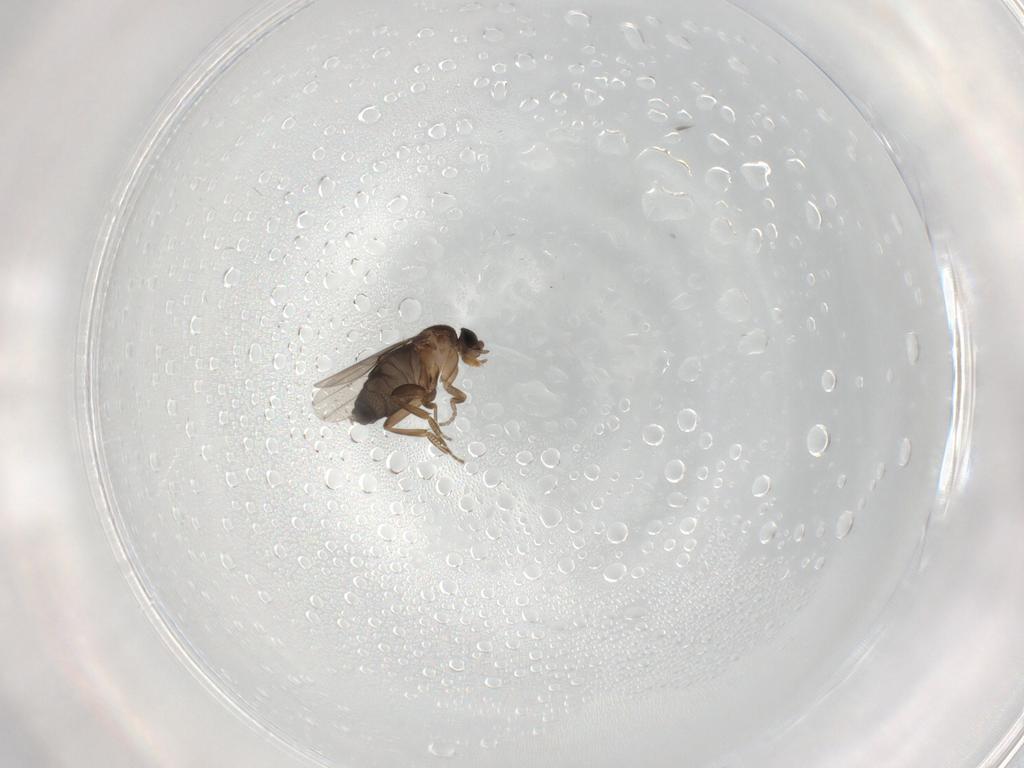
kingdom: Animalia
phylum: Arthropoda
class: Insecta
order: Diptera
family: Phoridae
